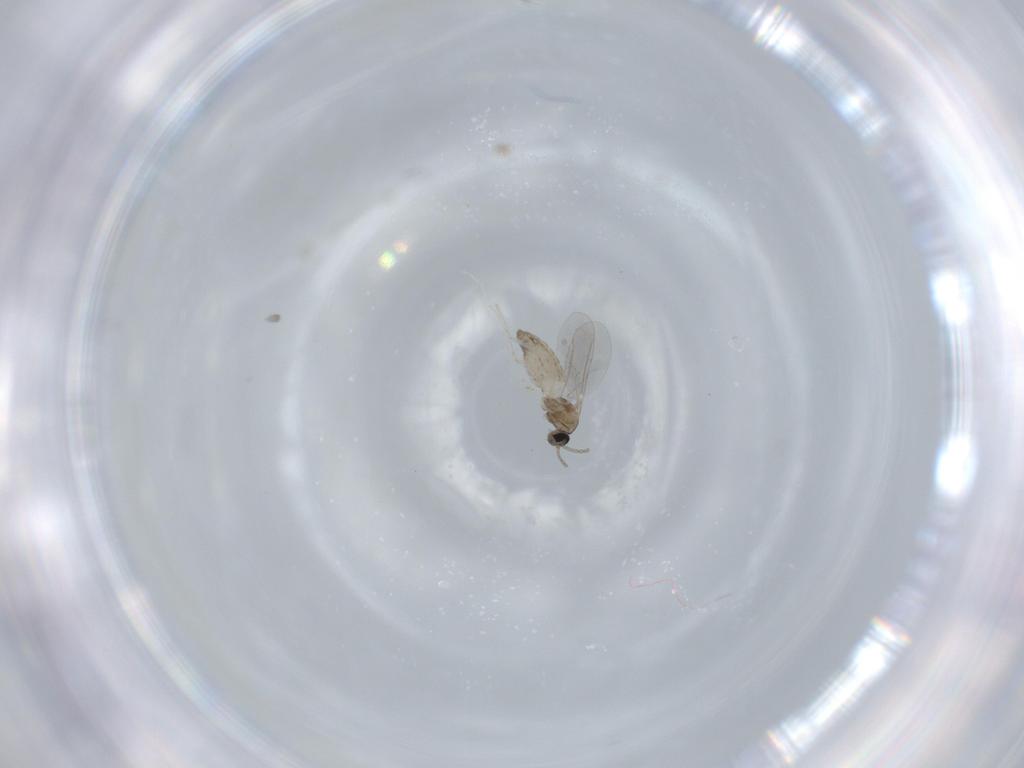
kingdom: Animalia
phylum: Arthropoda
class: Insecta
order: Diptera
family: Cecidomyiidae
